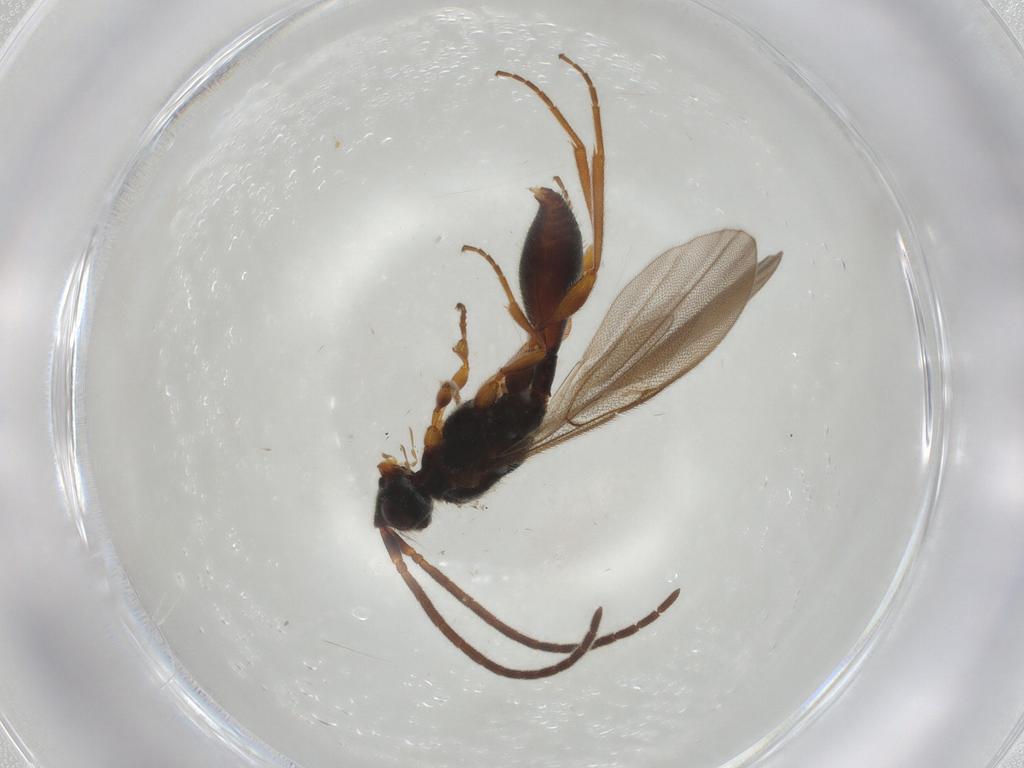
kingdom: Animalia
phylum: Arthropoda
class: Insecta
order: Hymenoptera
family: Diapriidae
